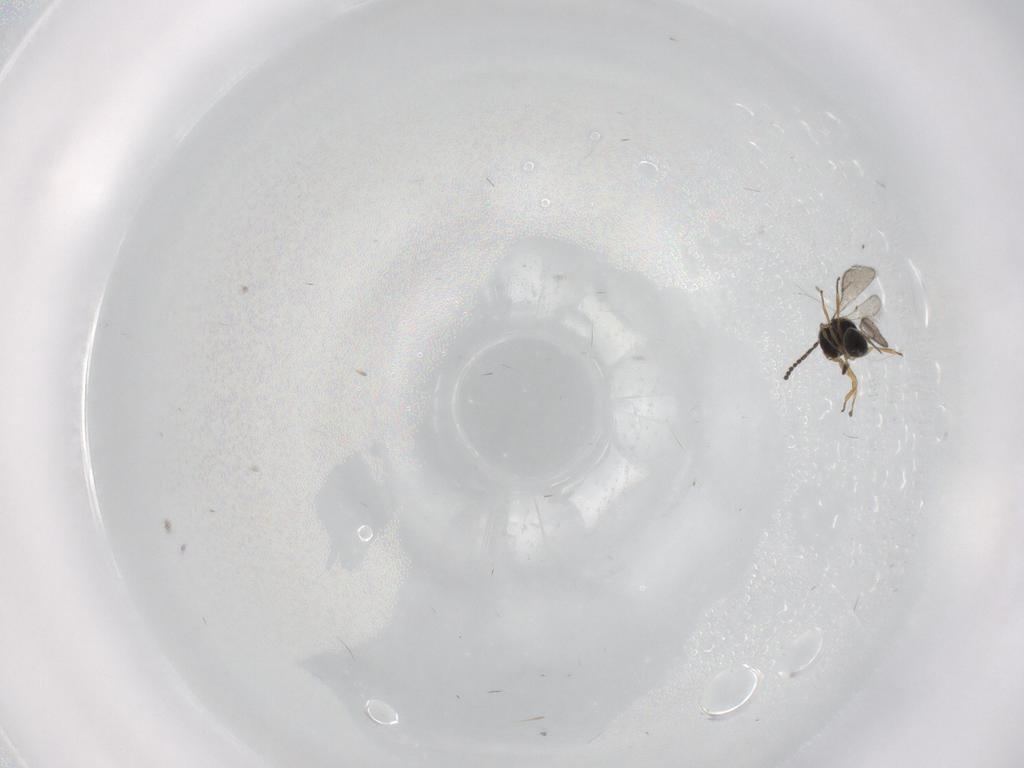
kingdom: Animalia
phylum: Arthropoda
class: Insecta
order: Hymenoptera
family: Scelionidae
